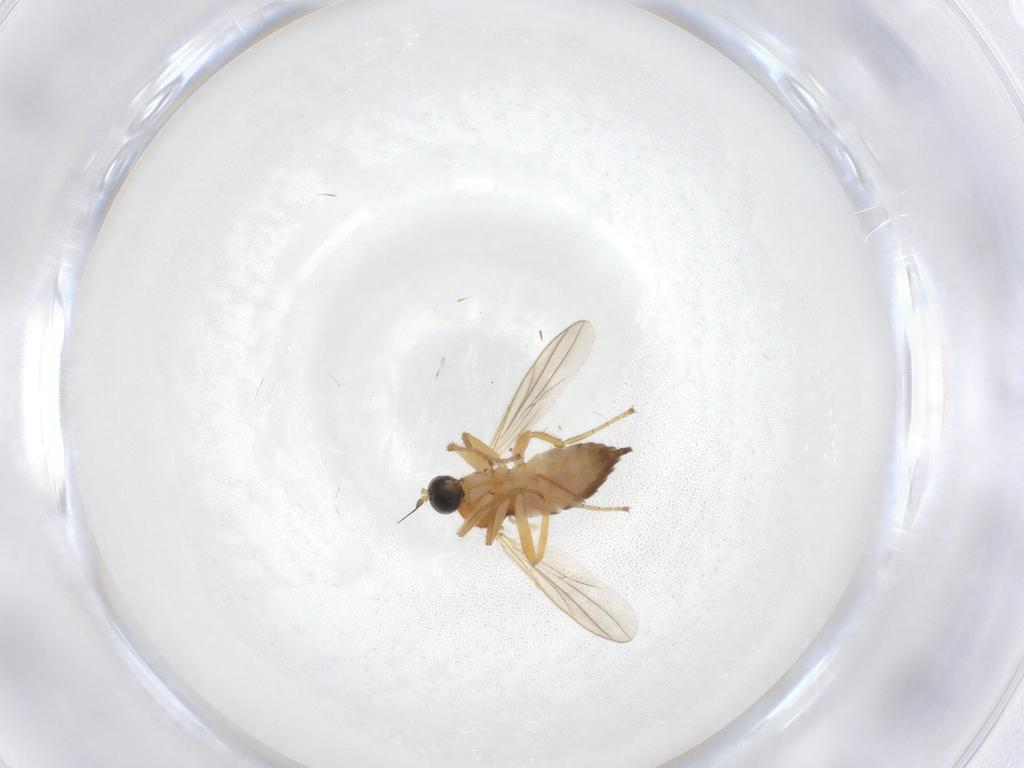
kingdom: Animalia
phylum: Arthropoda
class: Insecta
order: Diptera
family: Hybotidae
